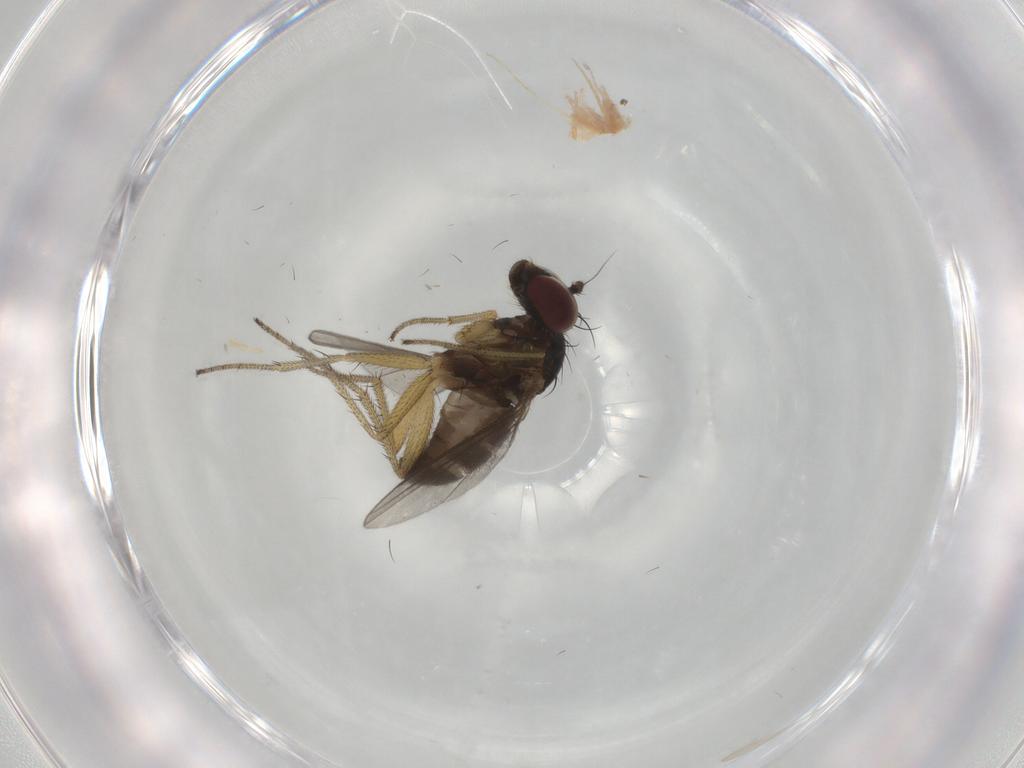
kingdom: Animalia
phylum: Arthropoda
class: Insecta
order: Diptera
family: Dolichopodidae
